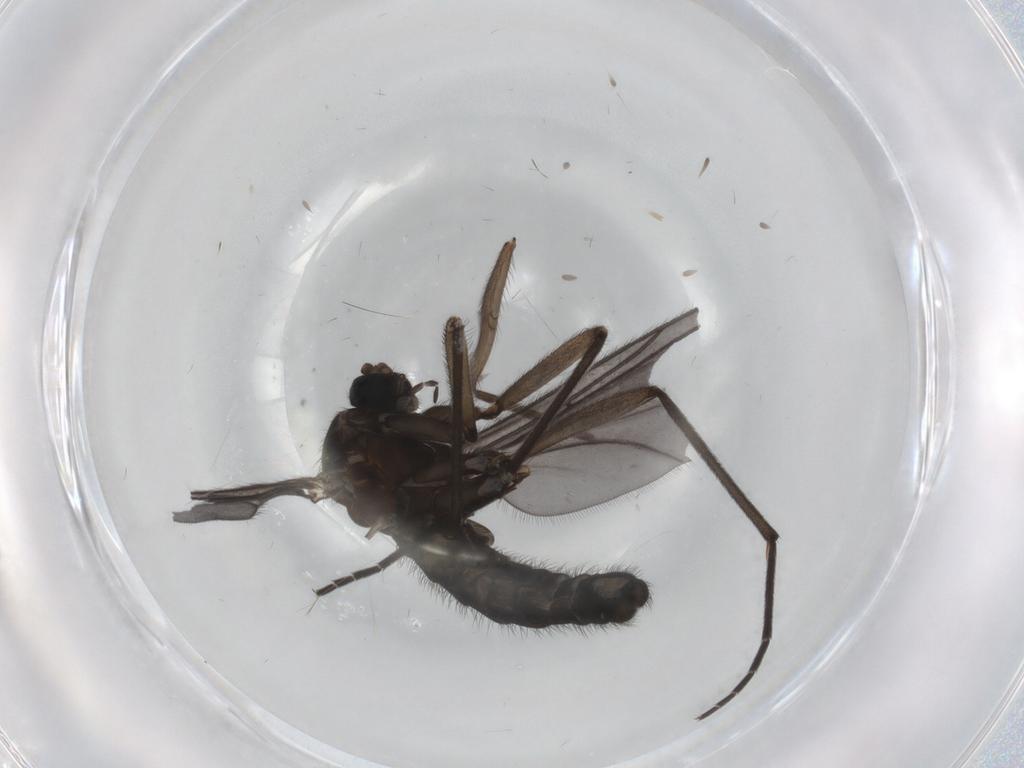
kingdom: Animalia
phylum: Arthropoda
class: Insecta
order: Diptera
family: Sciaridae
